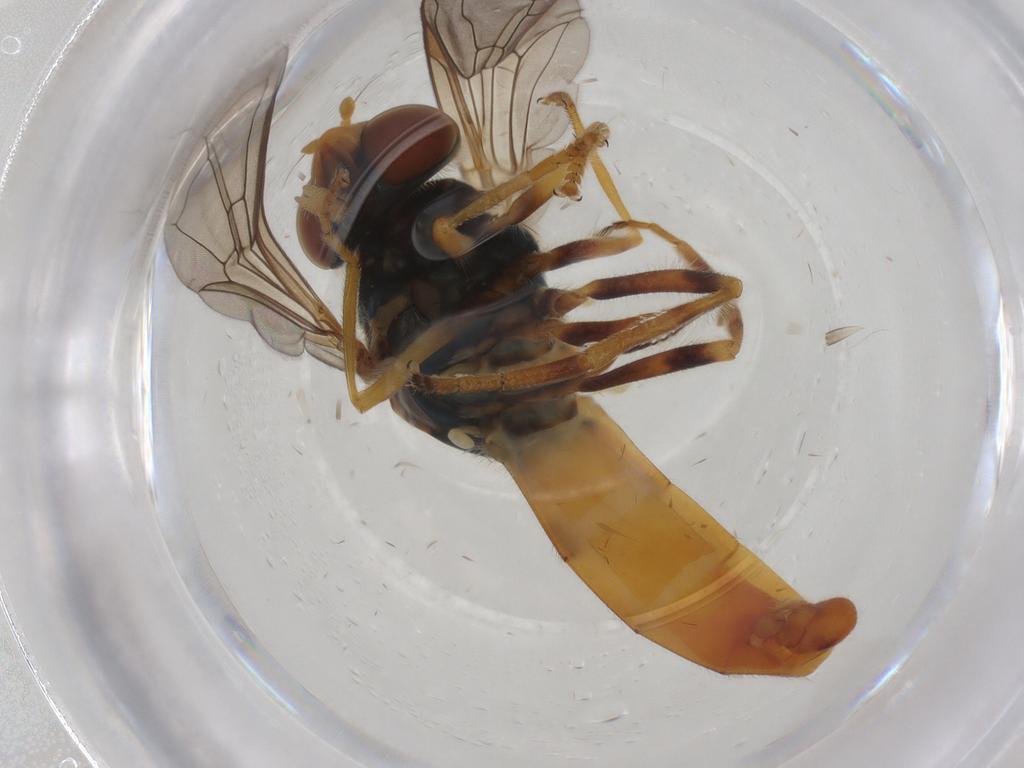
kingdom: Animalia
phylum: Arthropoda
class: Insecta
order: Diptera
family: Syrphidae
